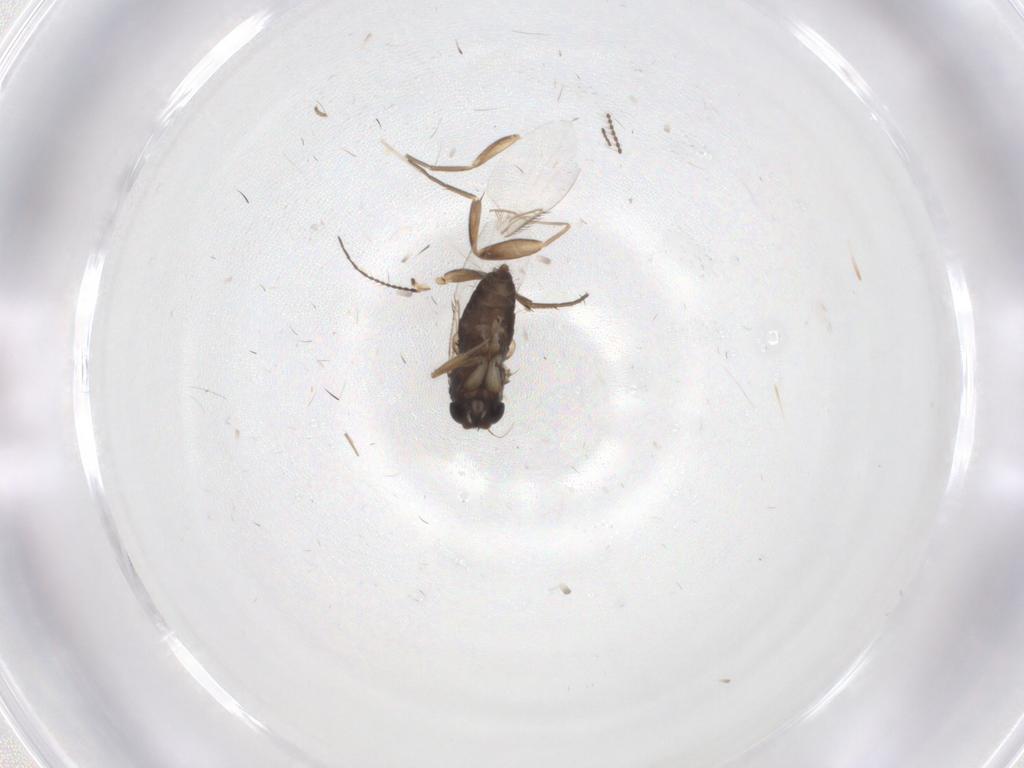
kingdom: Animalia
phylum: Arthropoda
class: Insecta
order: Diptera
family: Phoridae
